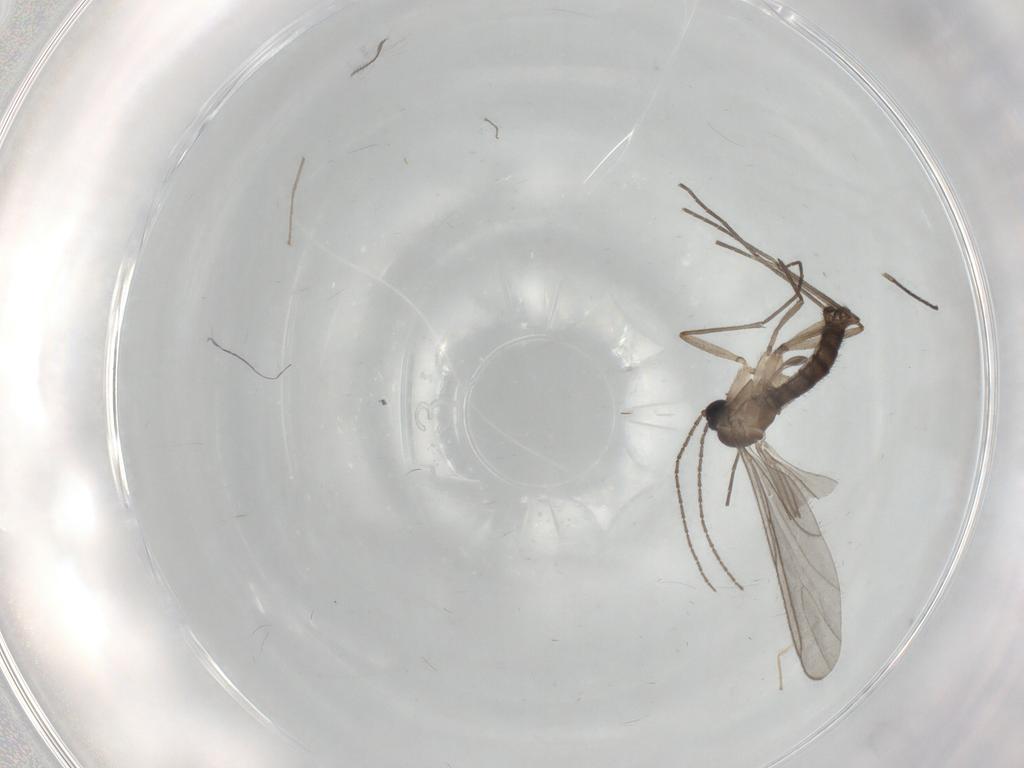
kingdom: Animalia
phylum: Arthropoda
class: Insecta
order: Diptera
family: Sciaridae
